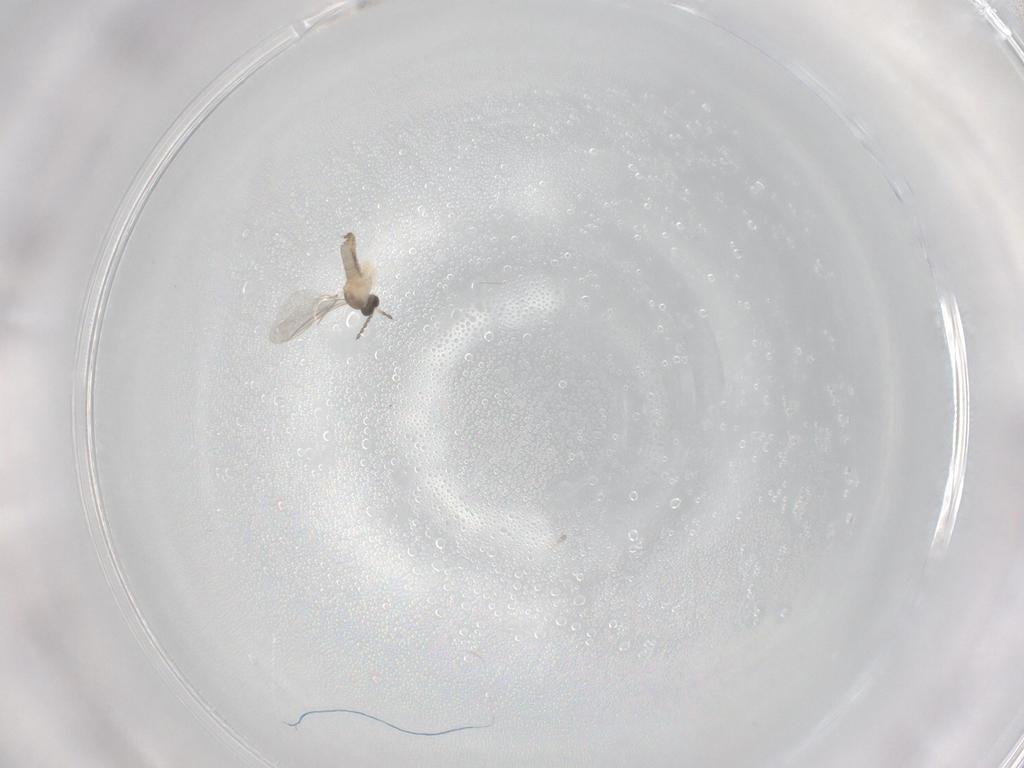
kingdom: Animalia
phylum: Arthropoda
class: Insecta
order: Diptera
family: Cecidomyiidae
